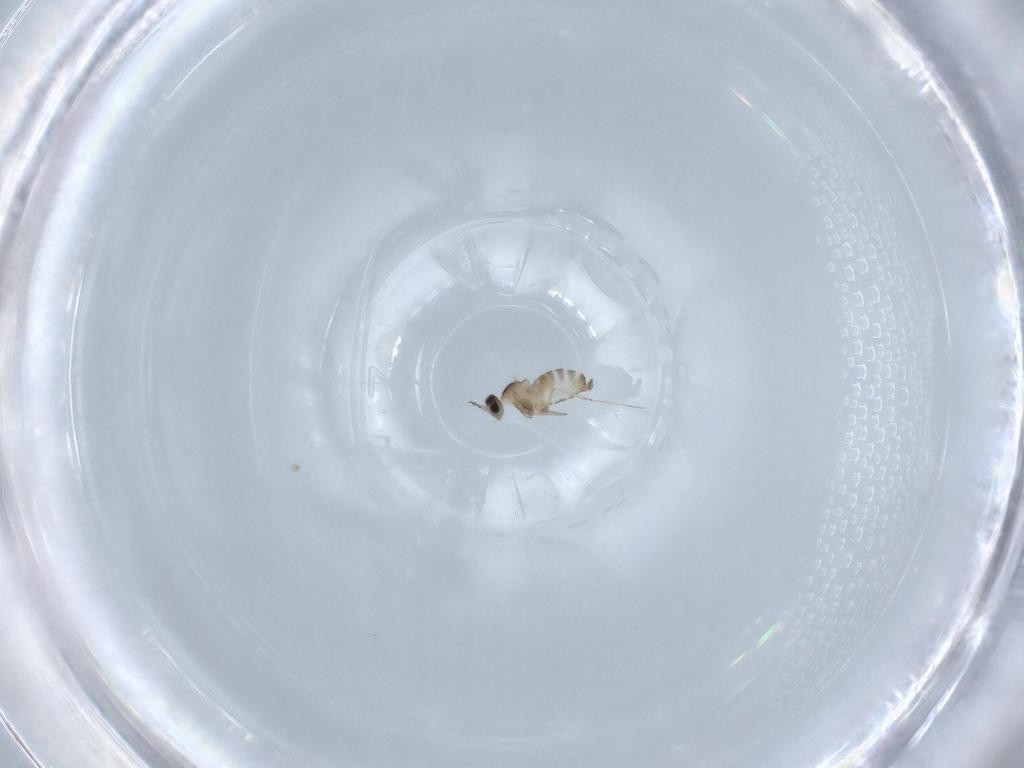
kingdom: Animalia
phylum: Arthropoda
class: Insecta
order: Diptera
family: Cecidomyiidae
